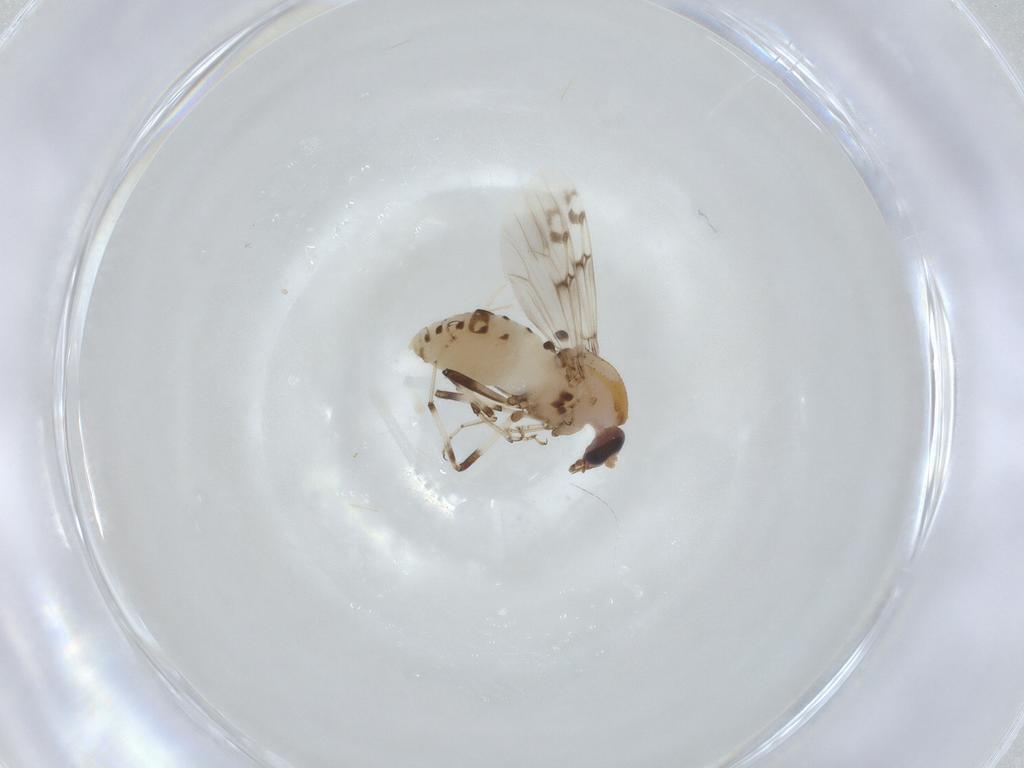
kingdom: Animalia
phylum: Arthropoda
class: Insecta
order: Diptera
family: Ceratopogonidae
